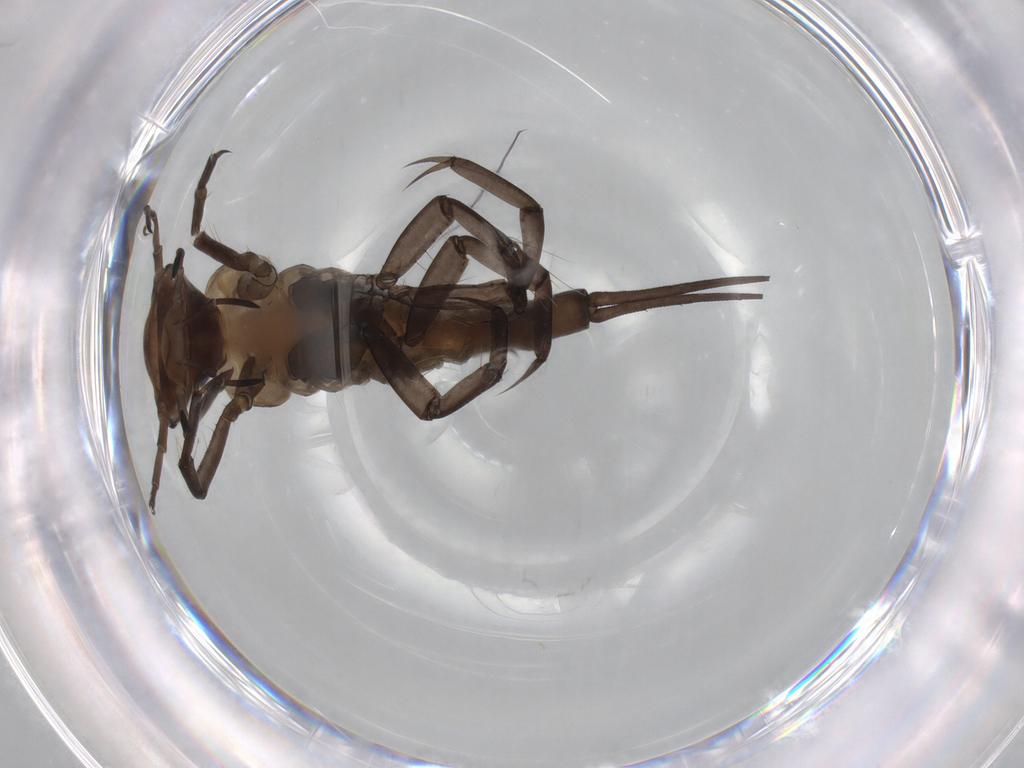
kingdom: Animalia
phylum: Arthropoda
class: Insecta
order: Coleoptera
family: Dytiscidae
